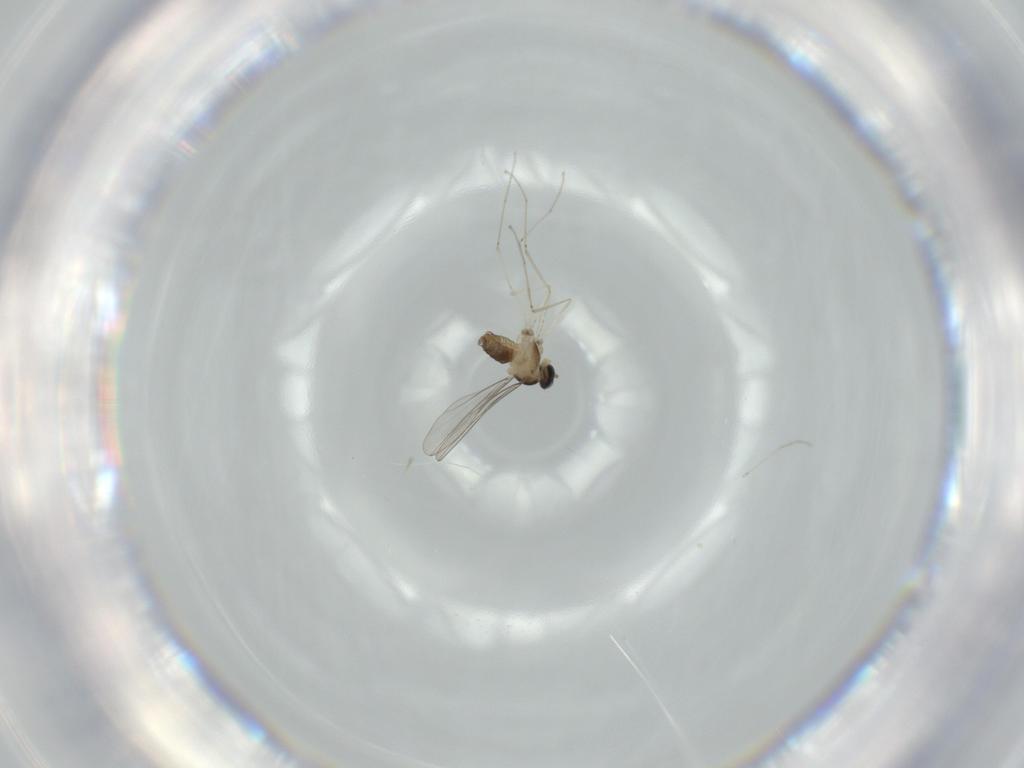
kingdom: Animalia
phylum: Arthropoda
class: Insecta
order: Diptera
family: Cecidomyiidae
